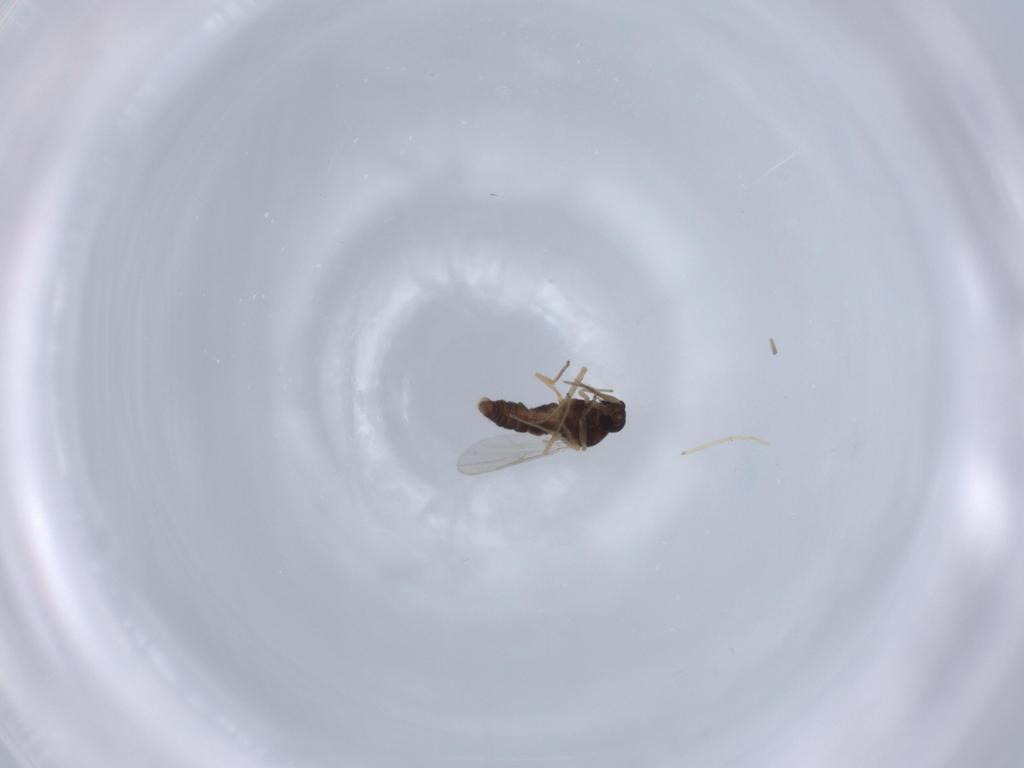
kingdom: Animalia
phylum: Arthropoda
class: Insecta
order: Diptera
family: Ceratopogonidae
